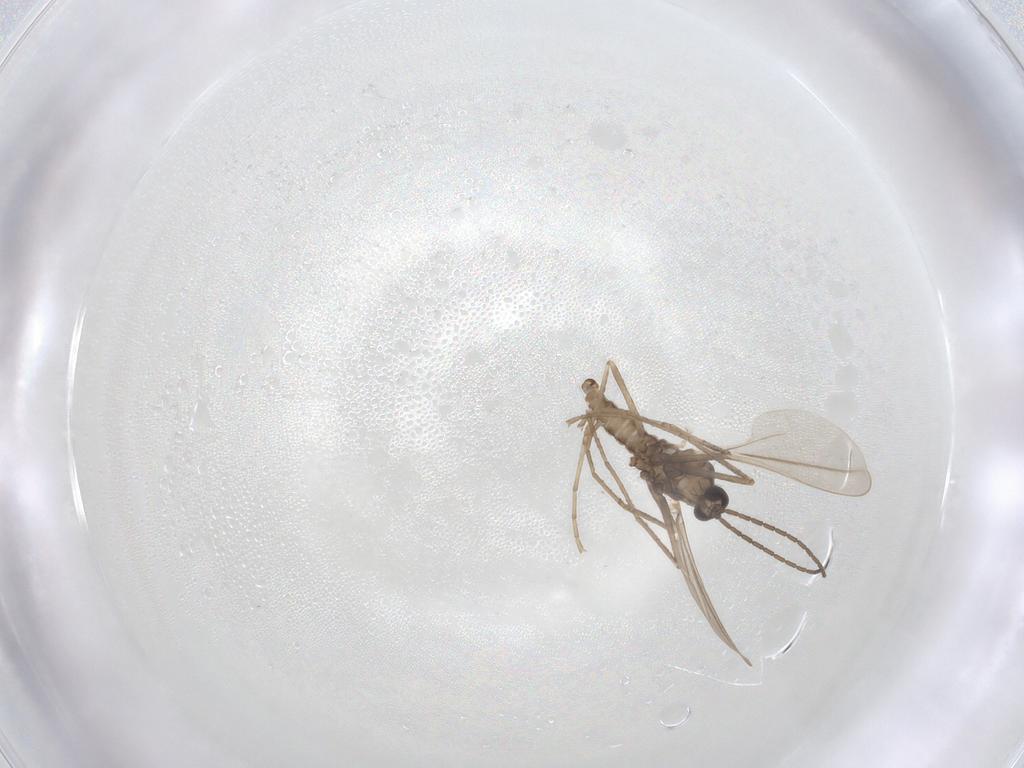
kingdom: Animalia
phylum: Arthropoda
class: Insecta
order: Diptera
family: Cecidomyiidae
